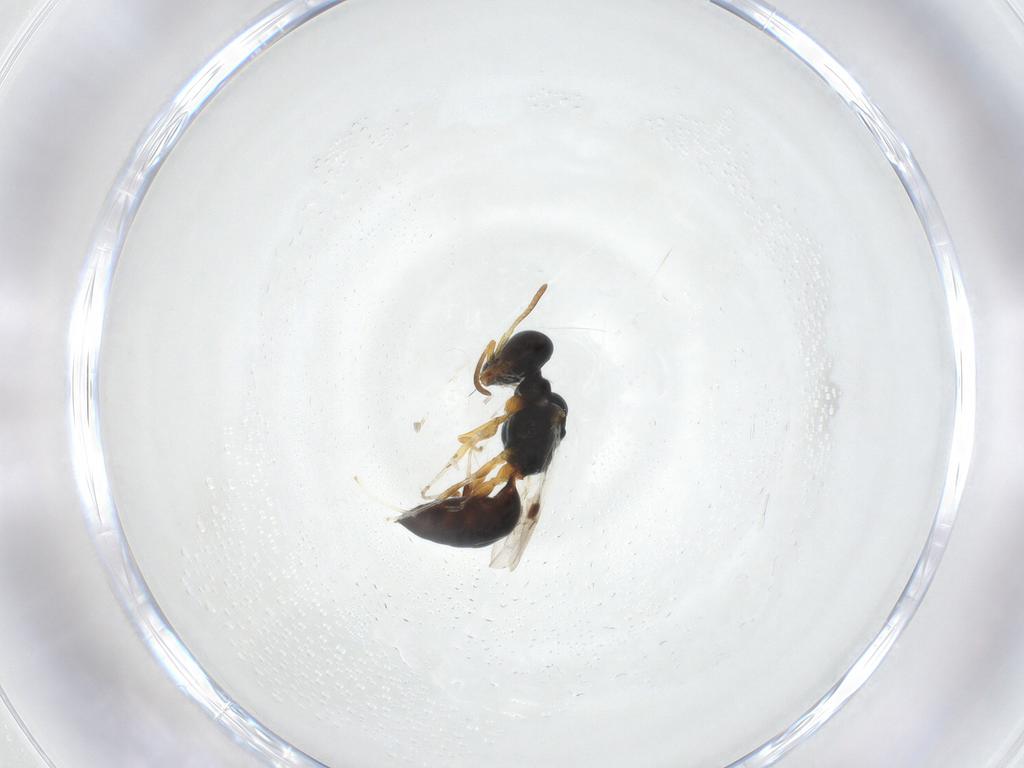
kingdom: Animalia
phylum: Arthropoda
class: Insecta
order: Hymenoptera
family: Pemphredonidae
